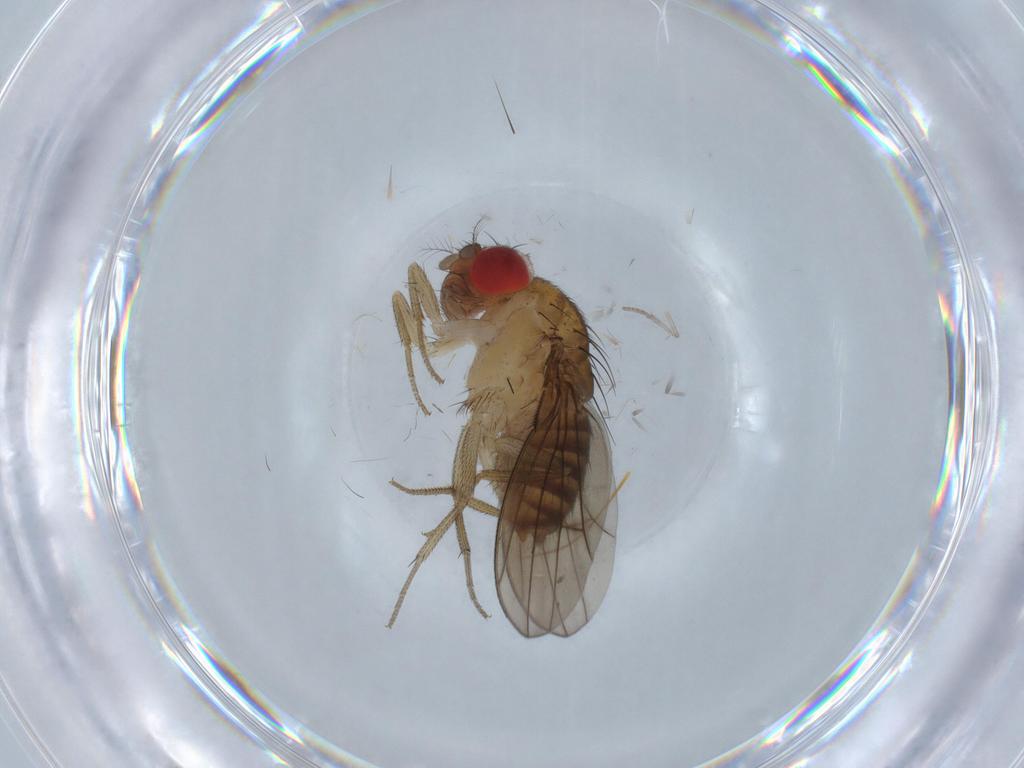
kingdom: Animalia
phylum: Arthropoda
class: Insecta
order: Diptera
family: Drosophilidae
